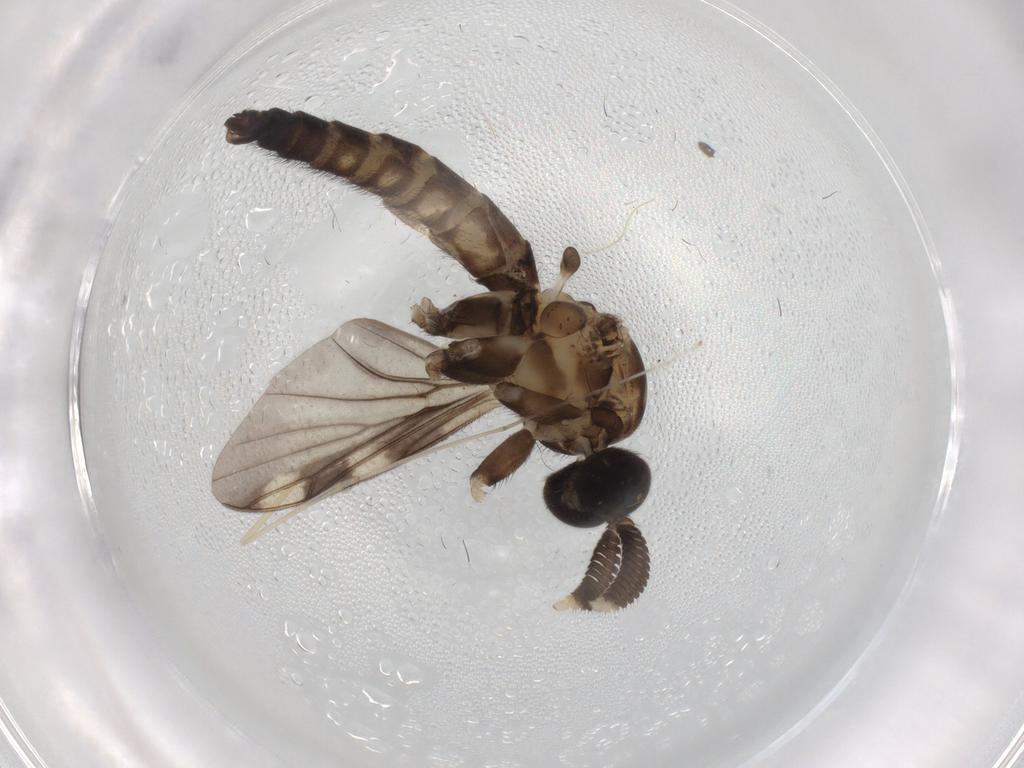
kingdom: Animalia
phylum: Arthropoda
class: Insecta
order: Diptera
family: Cecidomyiidae
